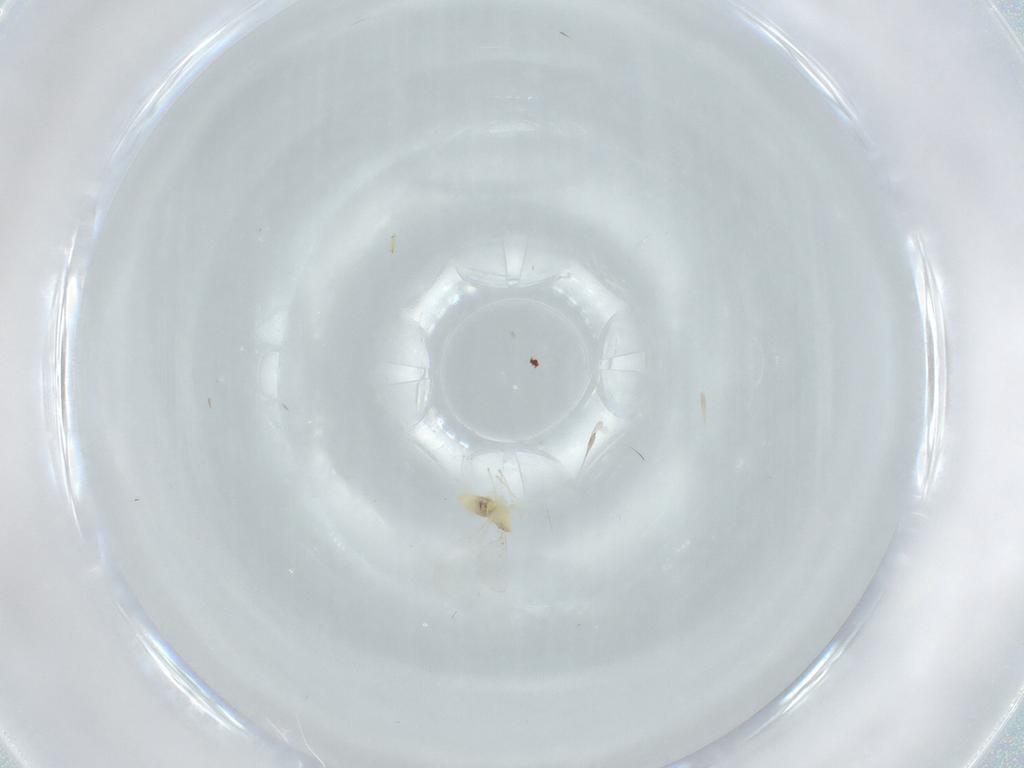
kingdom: Animalia
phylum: Arthropoda
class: Insecta
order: Diptera
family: Cecidomyiidae
